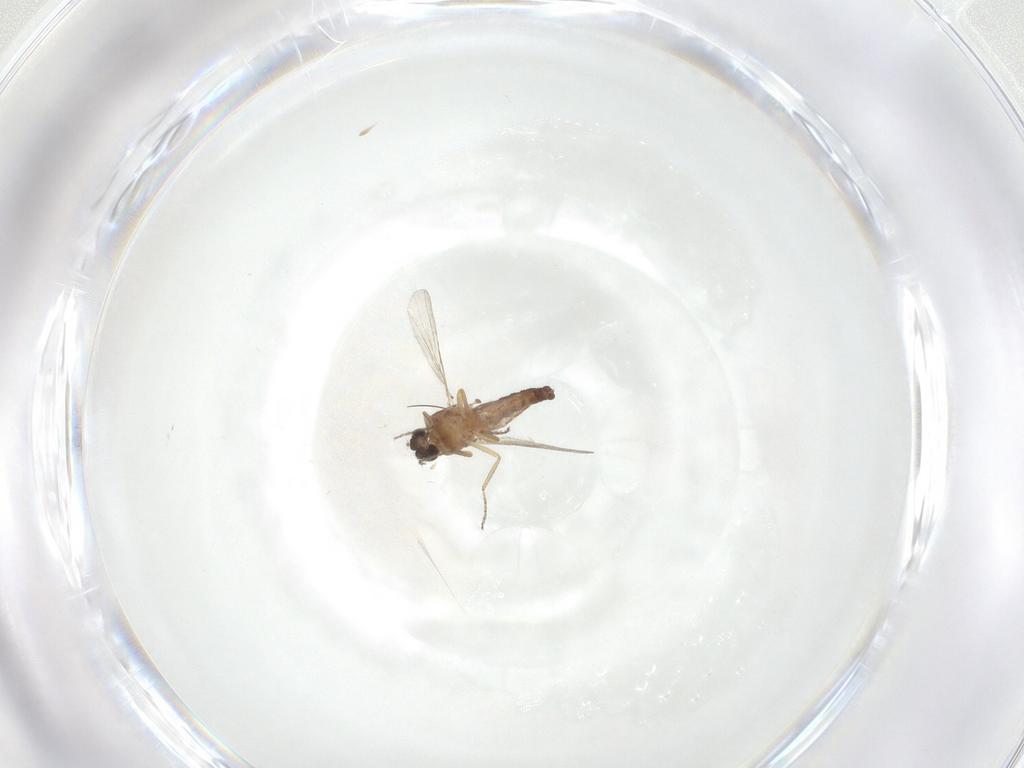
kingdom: Animalia
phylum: Arthropoda
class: Insecta
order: Diptera
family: Ceratopogonidae
